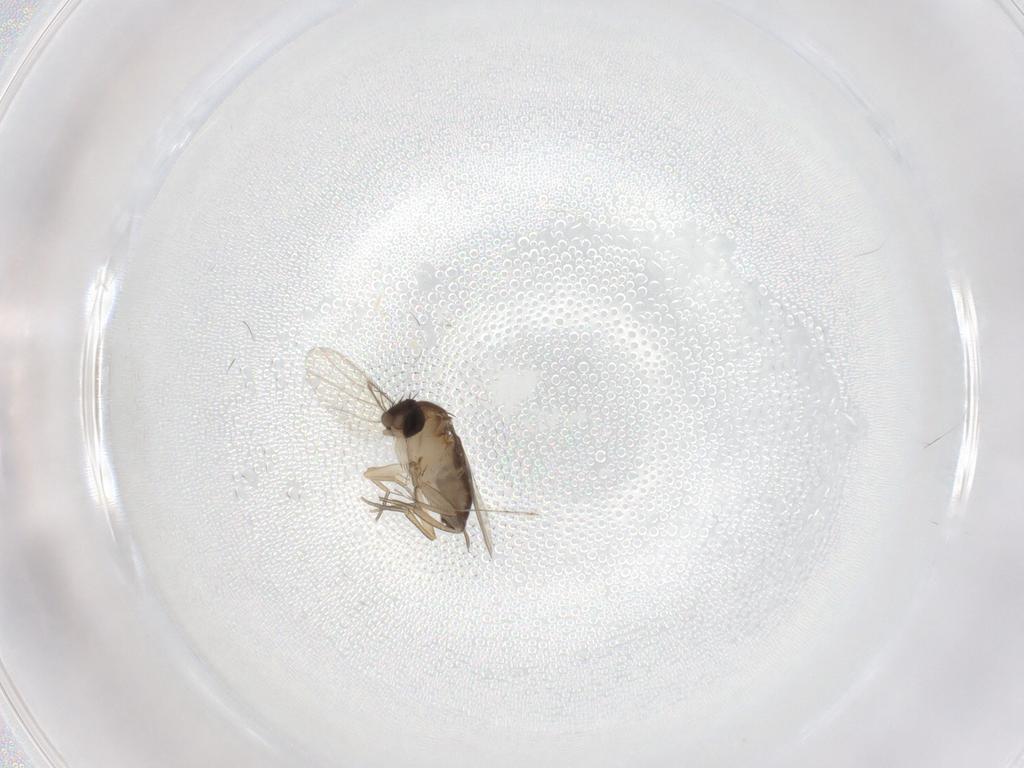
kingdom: Animalia
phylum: Arthropoda
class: Insecta
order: Diptera
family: Cecidomyiidae
